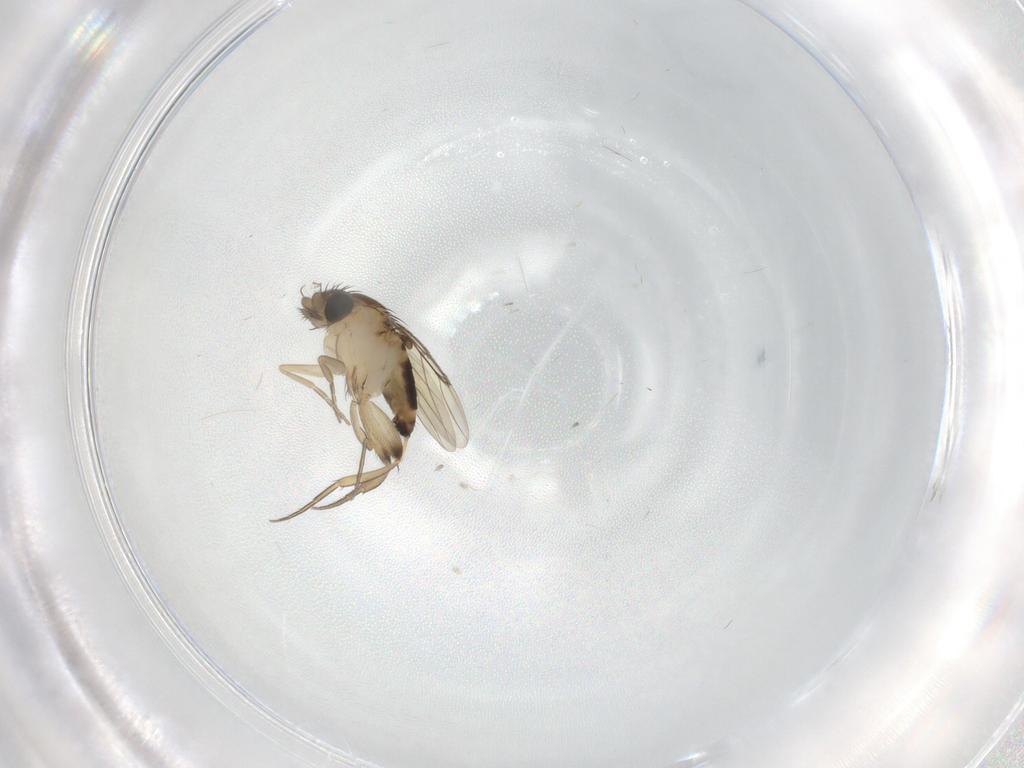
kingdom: Animalia
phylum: Arthropoda
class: Insecta
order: Diptera
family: Phoridae
